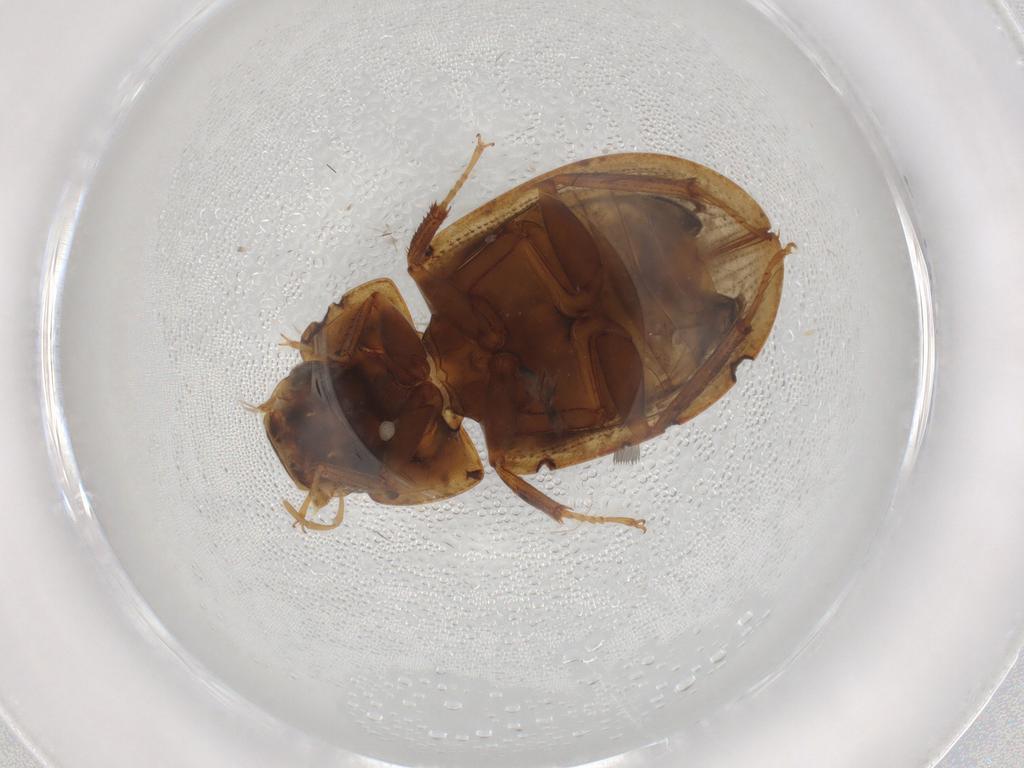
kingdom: Animalia
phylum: Arthropoda
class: Insecta
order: Coleoptera
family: Chrysomelidae
